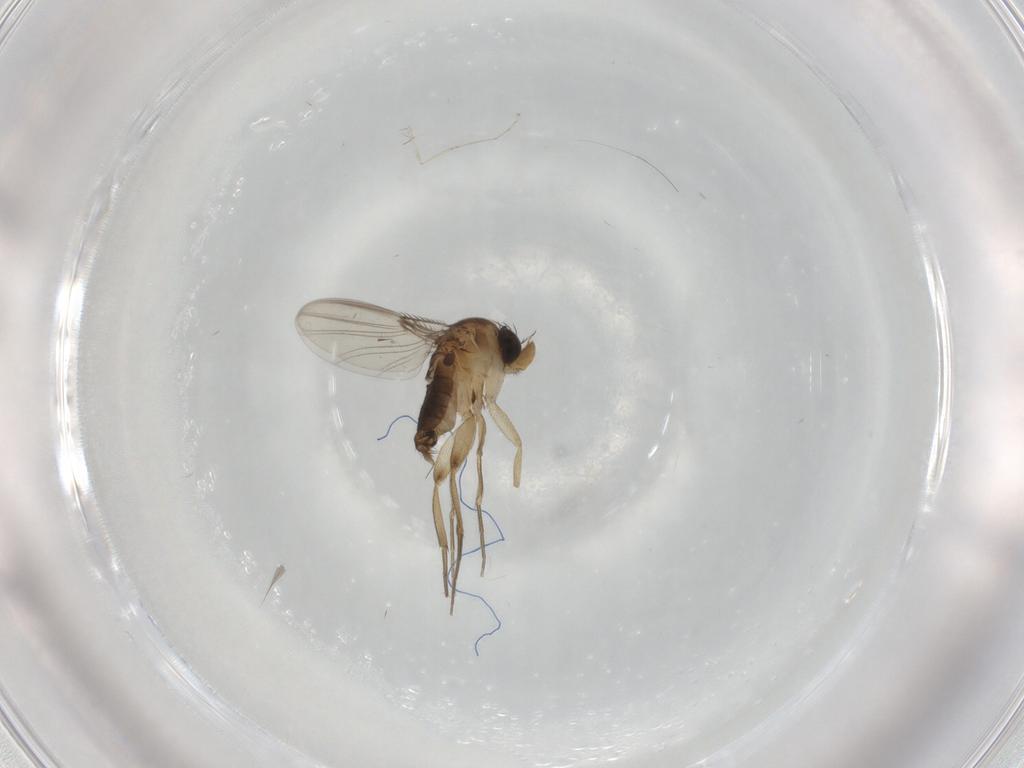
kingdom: Animalia
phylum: Arthropoda
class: Insecta
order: Diptera
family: Phoridae
